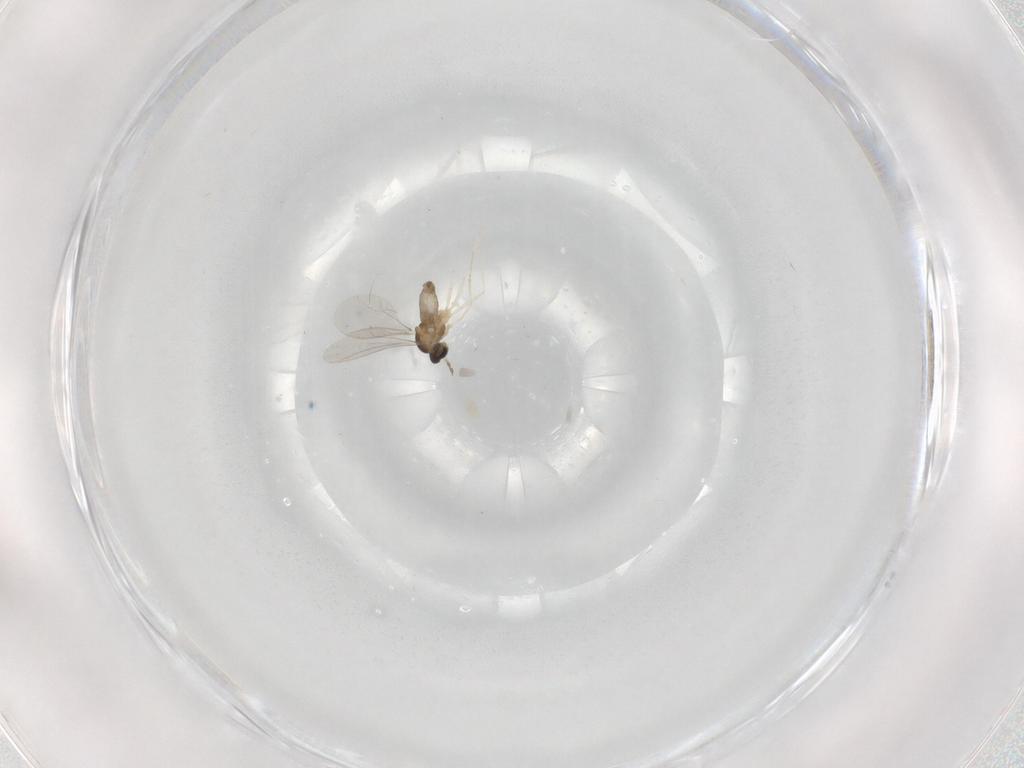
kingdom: Animalia
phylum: Arthropoda
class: Insecta
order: Diptera
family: Cecidomyiidae
